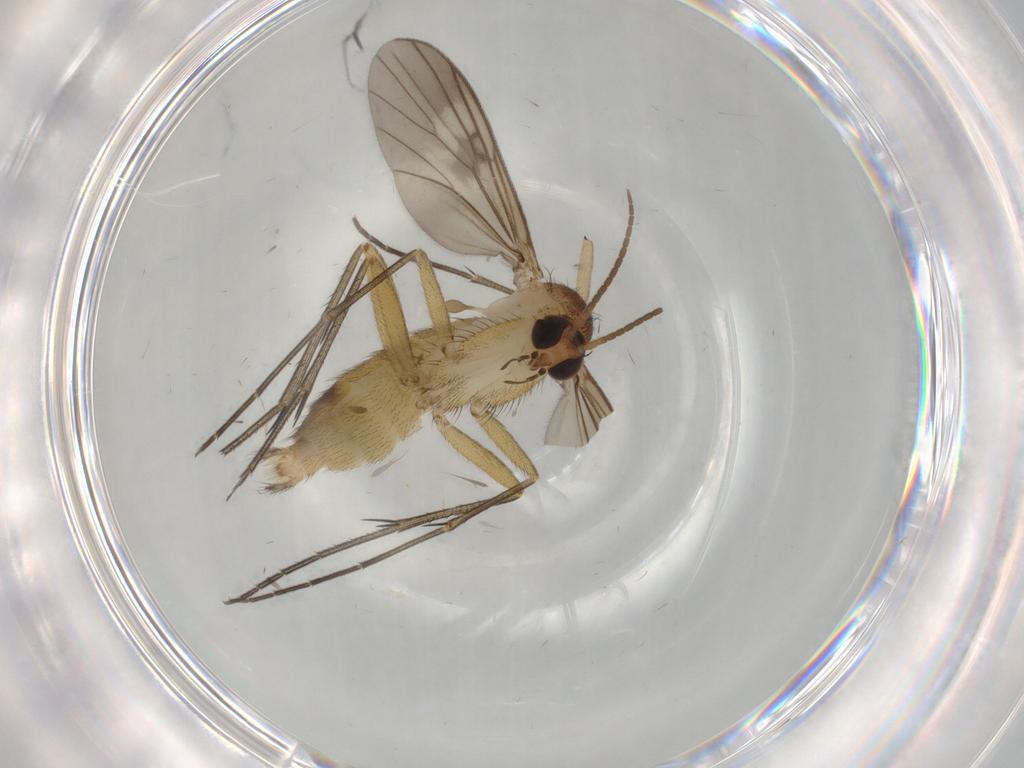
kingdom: Animalia
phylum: Arthropoda
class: Insecta
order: Diptera
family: Mycetophilidae
